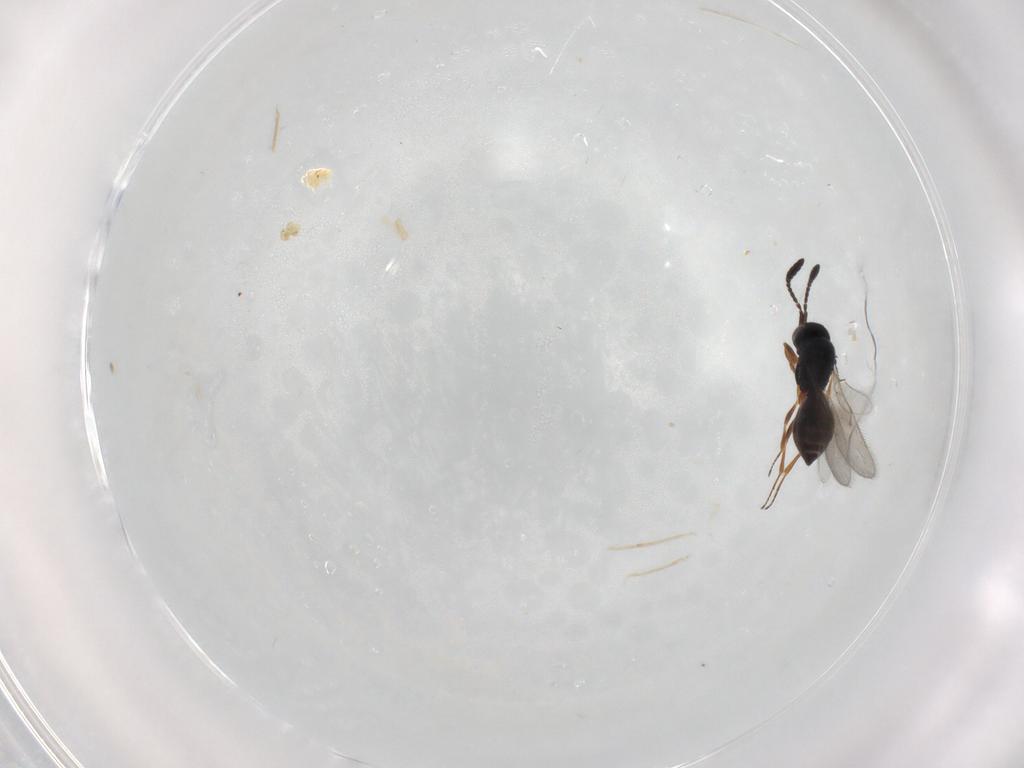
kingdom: Animalia
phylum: Arthropoda
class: Insecta
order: Hymenoptera
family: Scelionidae
